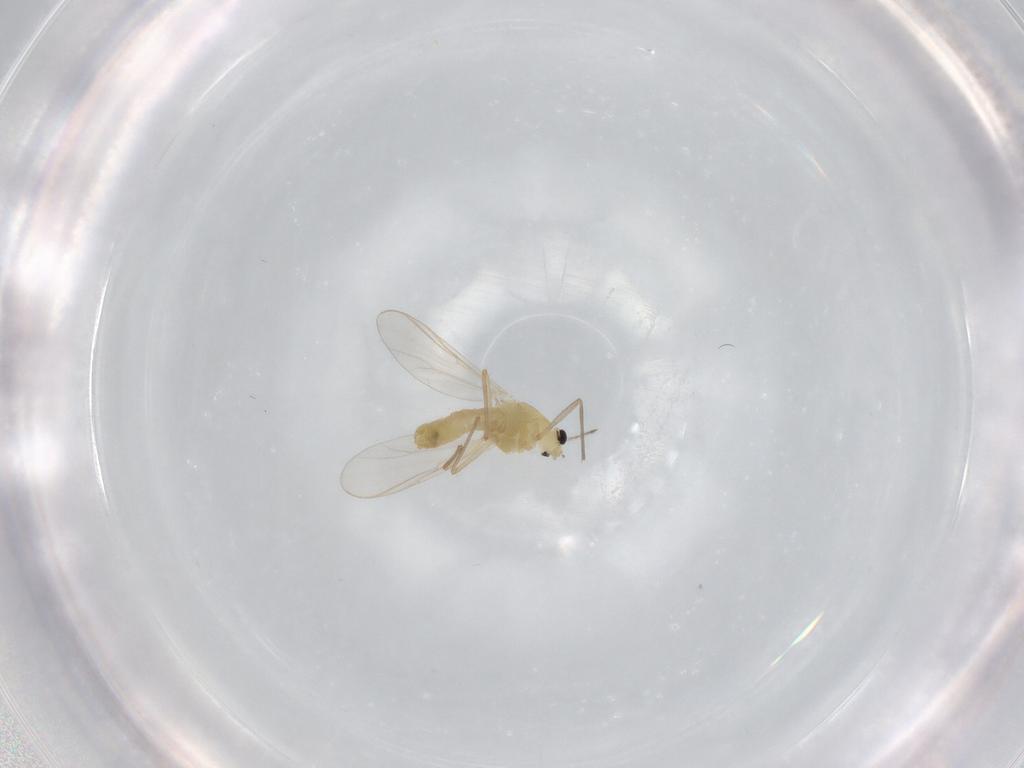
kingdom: Animalia
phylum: Arthropoda
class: Insecta
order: Diptera
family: Chironomidae
